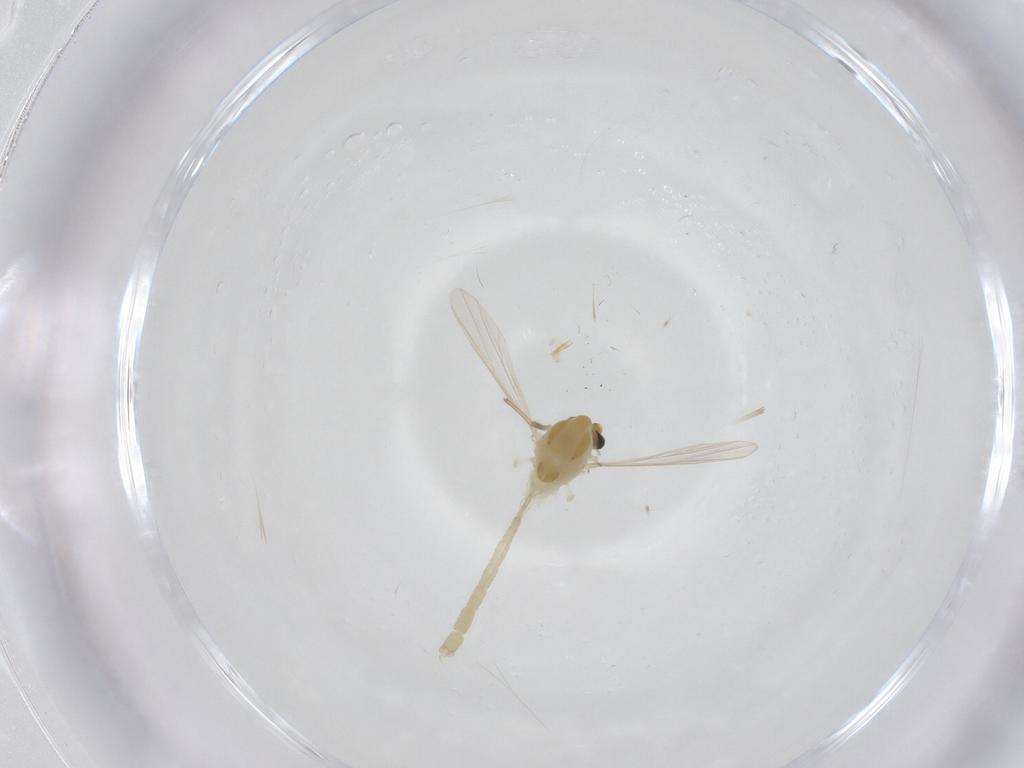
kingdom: Animalia
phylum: Arthropoda
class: Insecta
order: Diptera
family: Chironomidae
